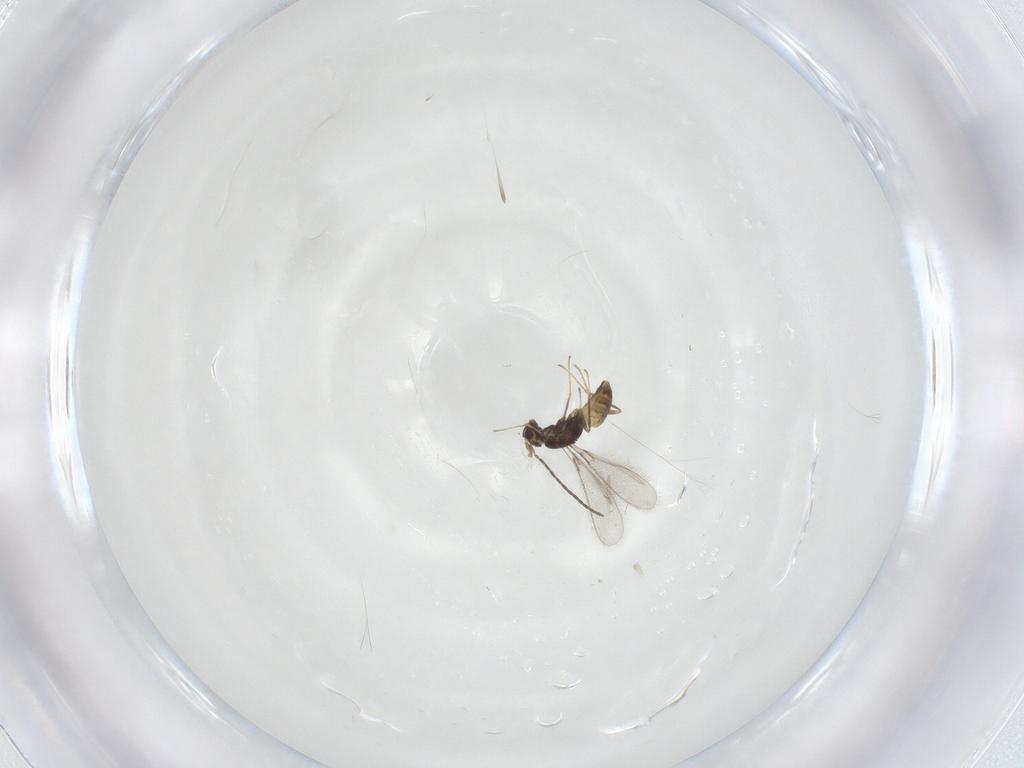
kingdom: Animalia
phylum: Arthropoda
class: Insecta
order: Hymenoptera
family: Mymaridae
